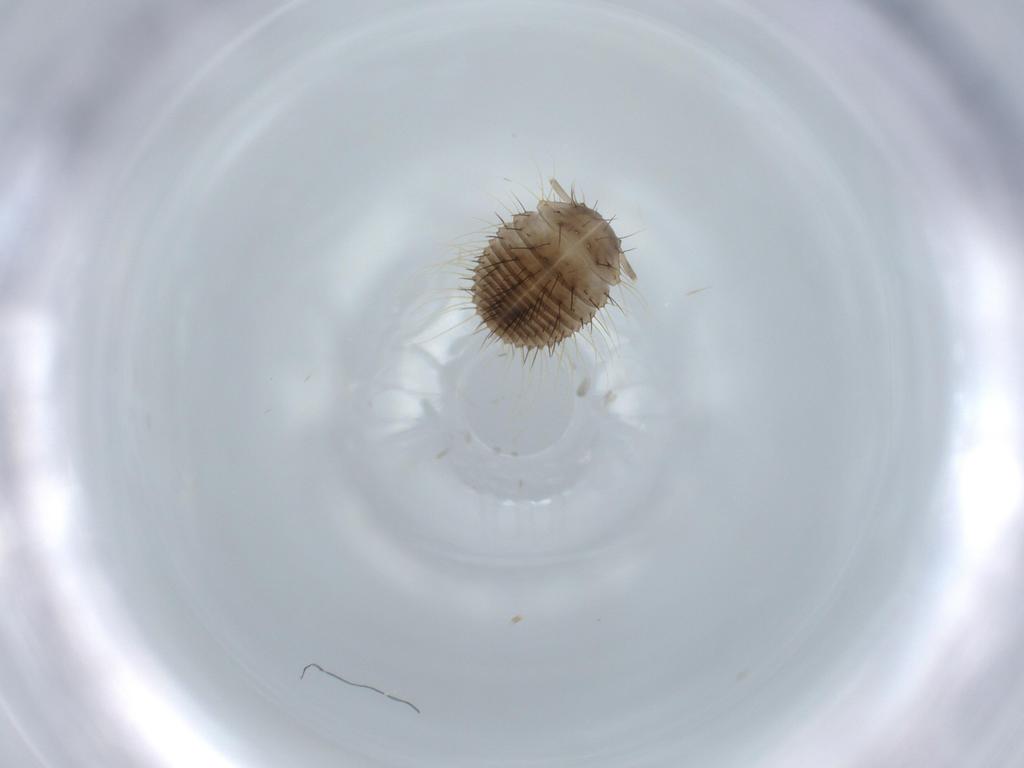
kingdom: Animalia
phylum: Arthropoda
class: Insecta
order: Coleoptera
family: Endomychidae
